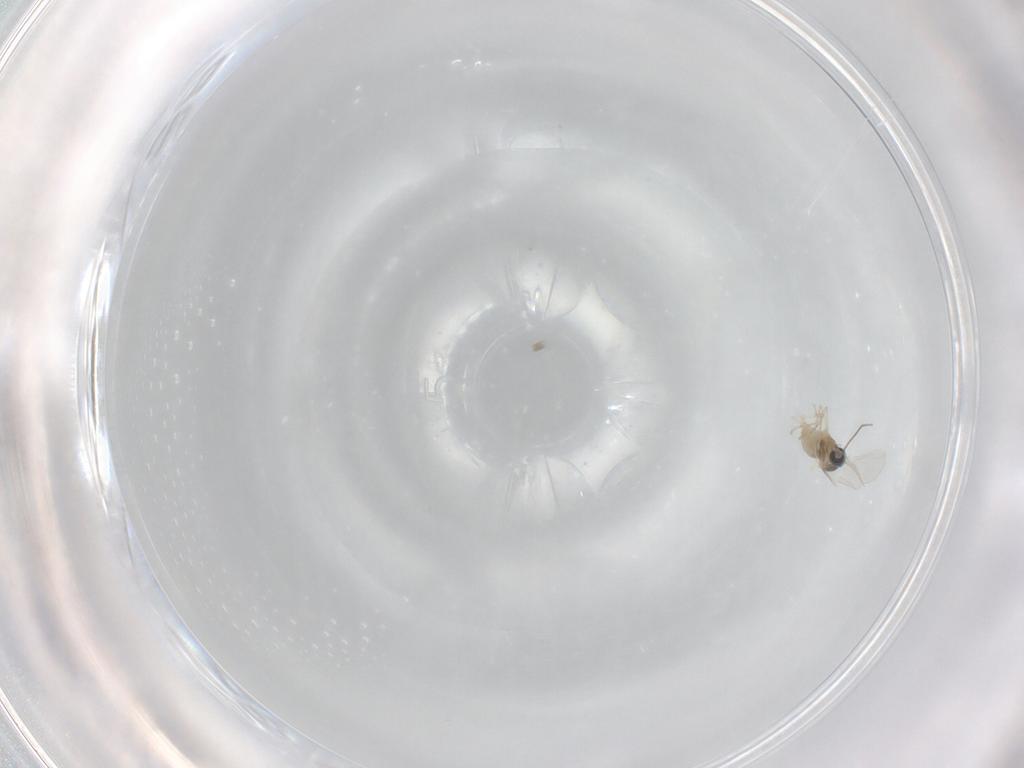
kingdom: Animalia
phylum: Arthropoda
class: Insecta
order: Diptera
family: Cecidomyiidae
